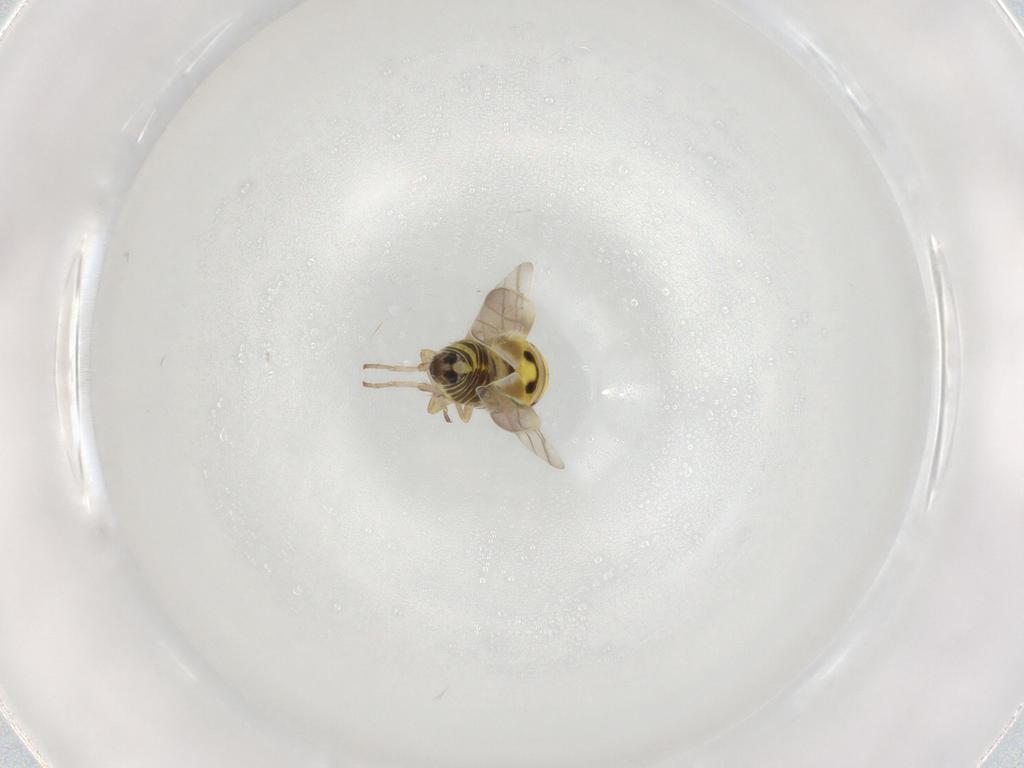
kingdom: Animalia
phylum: Arthropoda
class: Insecta
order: Hemiptera
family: Cicadellidae
